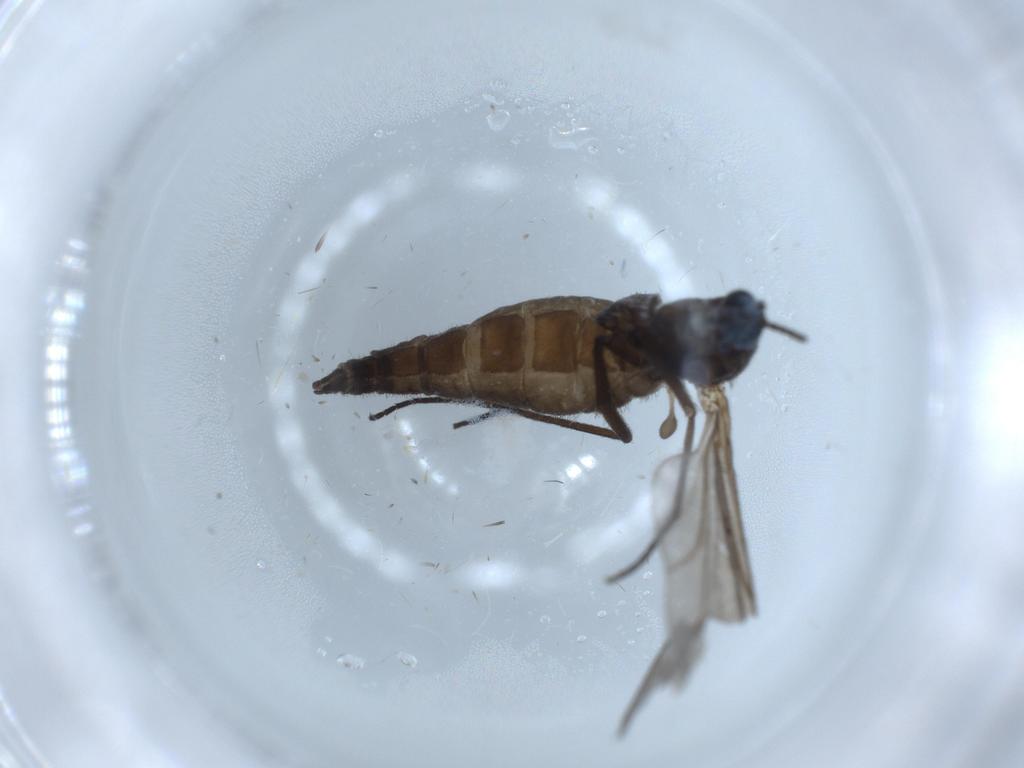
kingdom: Animalia
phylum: Arthropoda
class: Insecta
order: Diptera
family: Sciaridae
